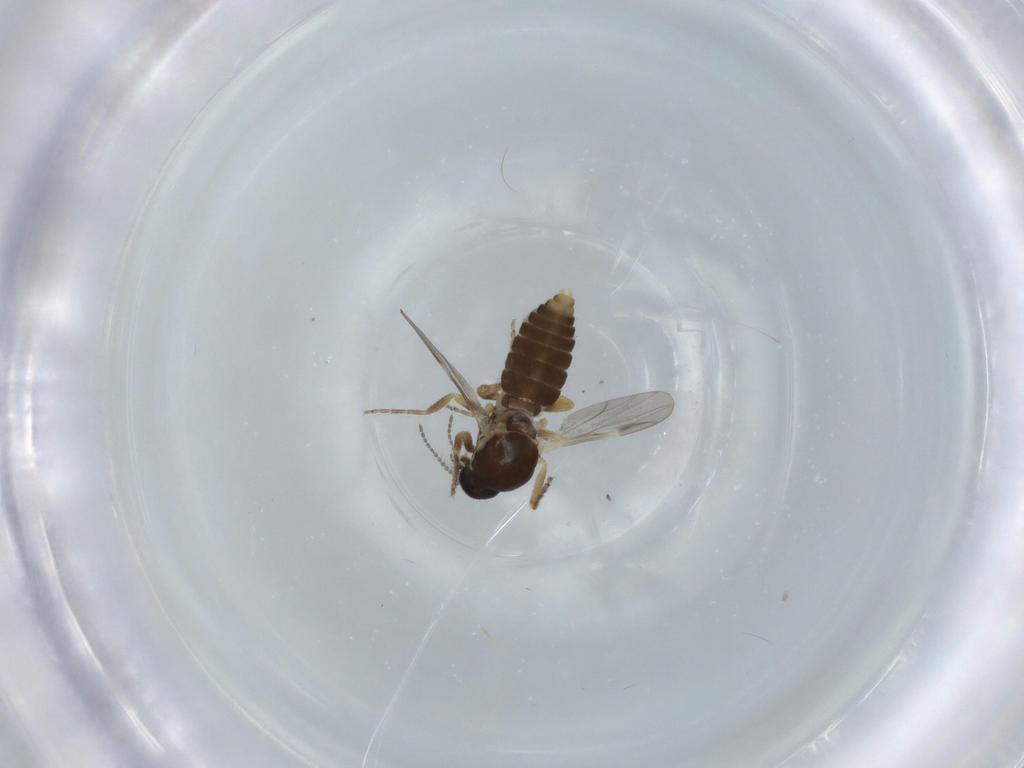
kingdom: Animalia
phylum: Arthropoda
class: Insecta
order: Diptera
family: Ceratopogonidae
